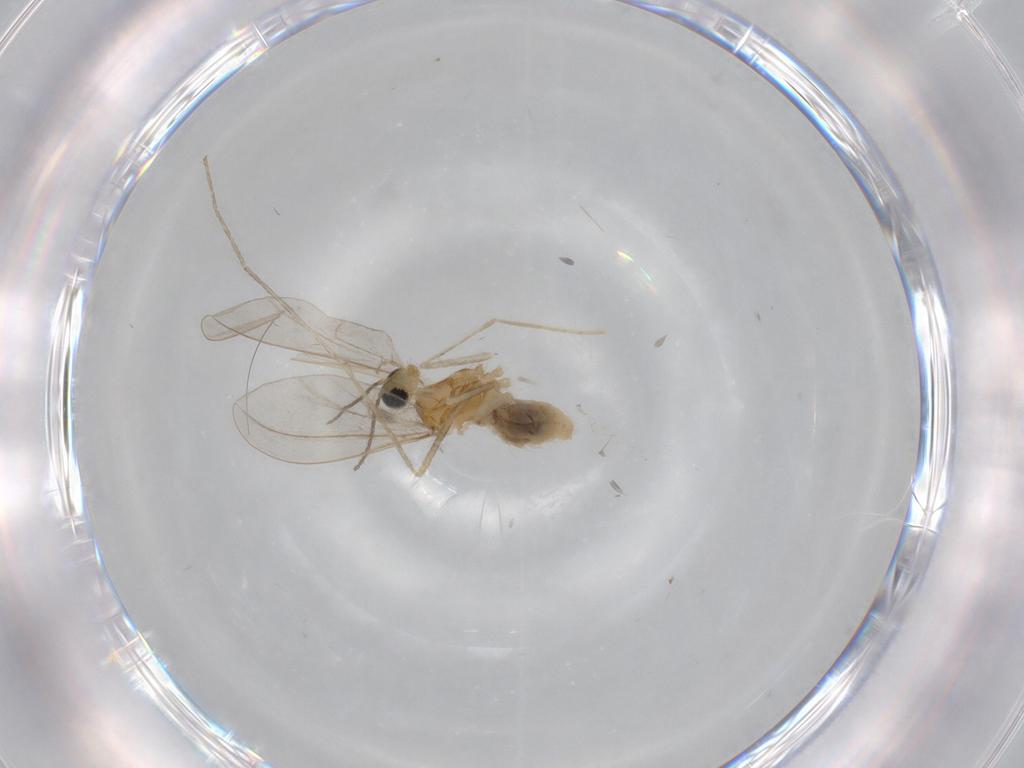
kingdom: Animalia
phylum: Arthropoda
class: Insecta
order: Diptera
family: Cecidomyiidae
